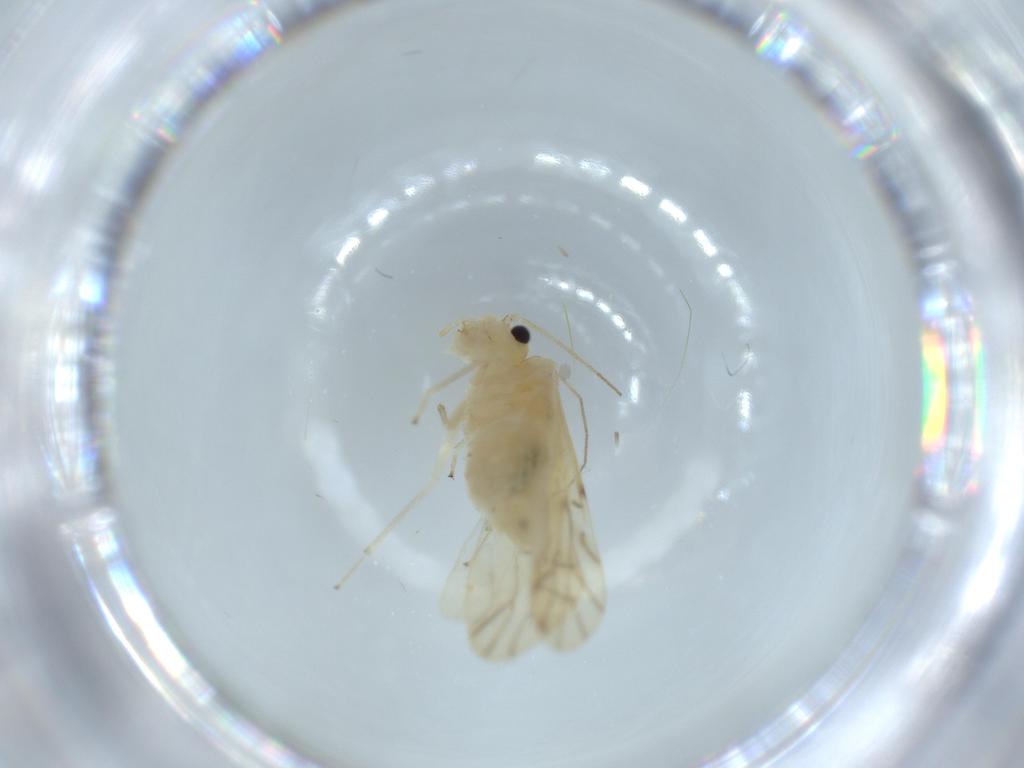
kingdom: Animalia
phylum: Arthropoda
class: Insecta
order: Psocodea
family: Caeciliusidae
